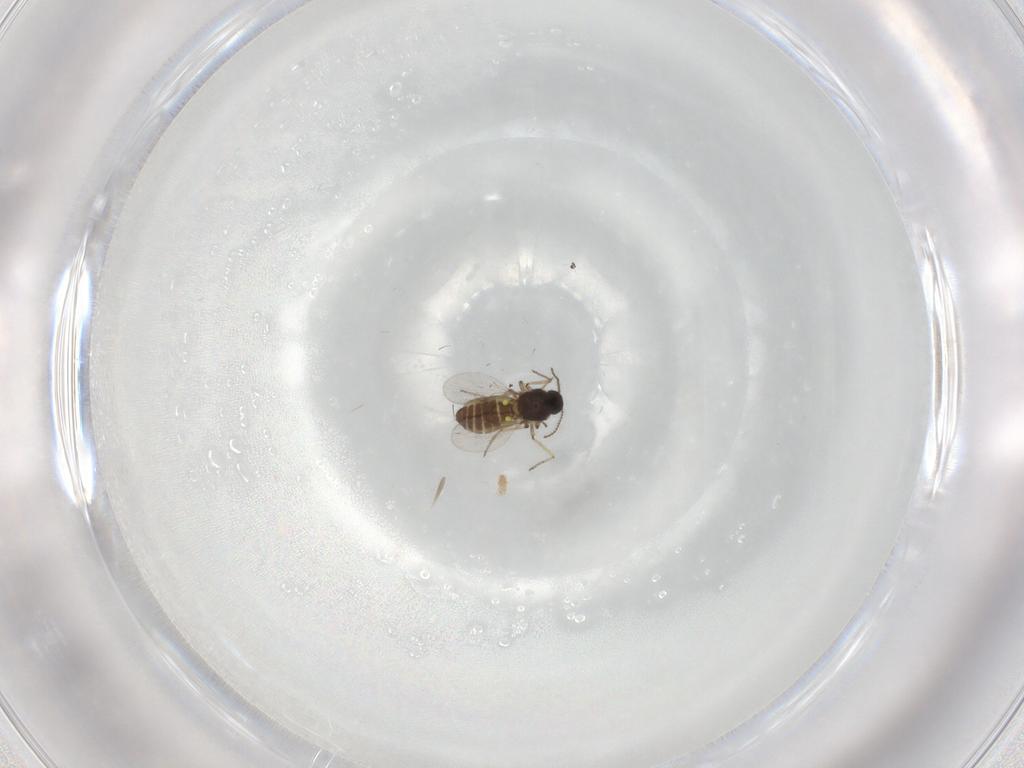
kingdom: Animalia
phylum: Arthropoda
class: Insecta
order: Diptera
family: Ceratopogonidae
